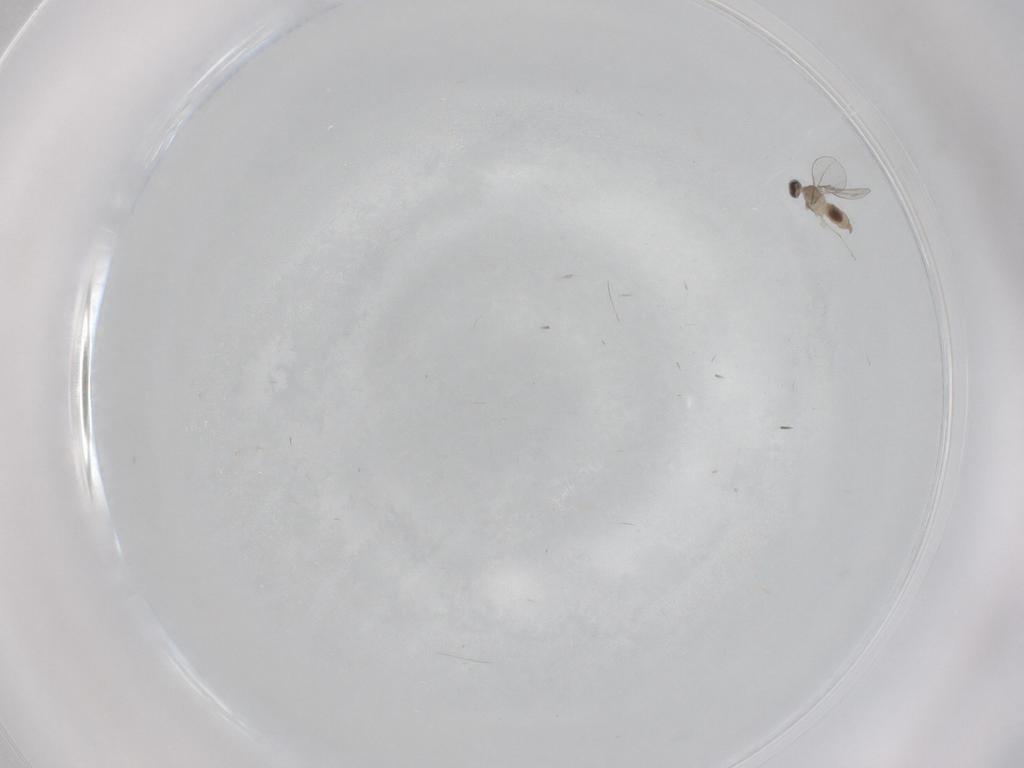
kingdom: Animalia
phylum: Arthropoda
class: Insecta
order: Diptera
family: Cecidomyiidae
